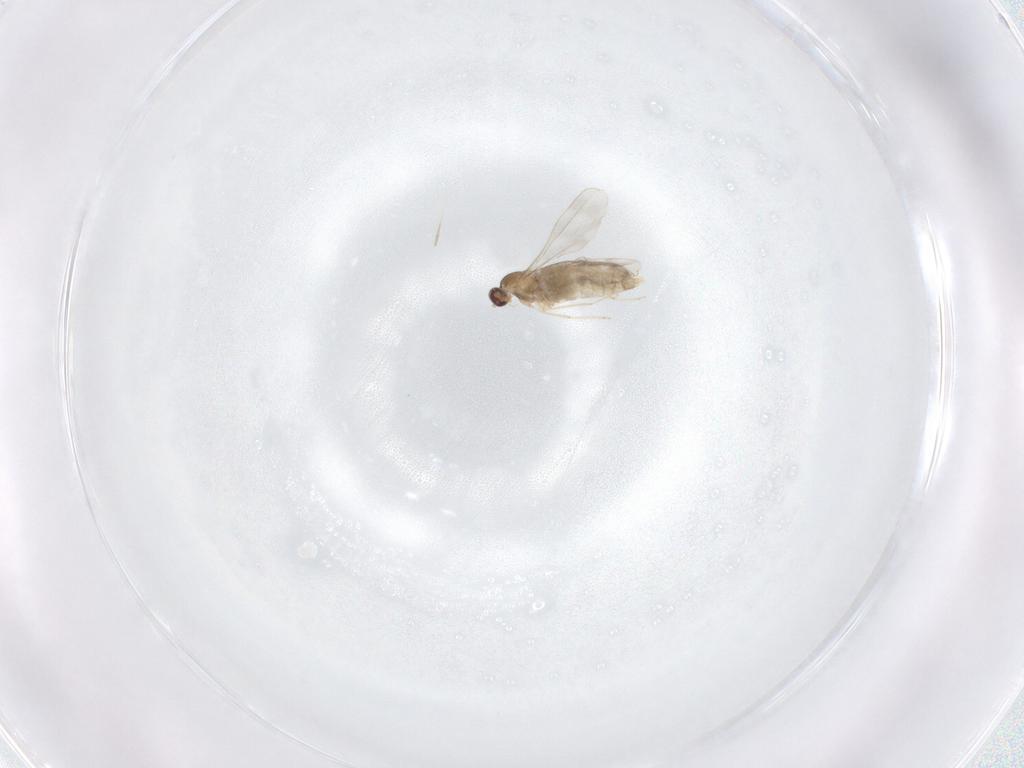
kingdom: Animalia
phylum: Arthropoda
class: Insecta
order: Diptera
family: Cecidomyiidae
